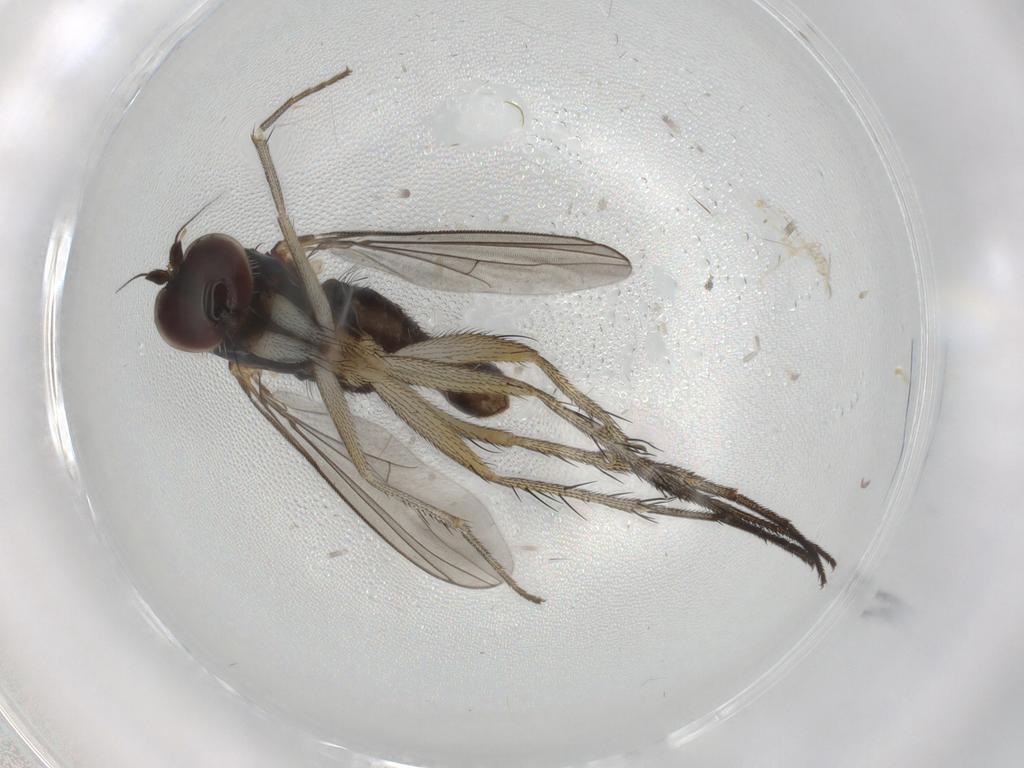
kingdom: Animalia
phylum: Arthropoda
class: Insecta
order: Diptera
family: Dolichopodidae
